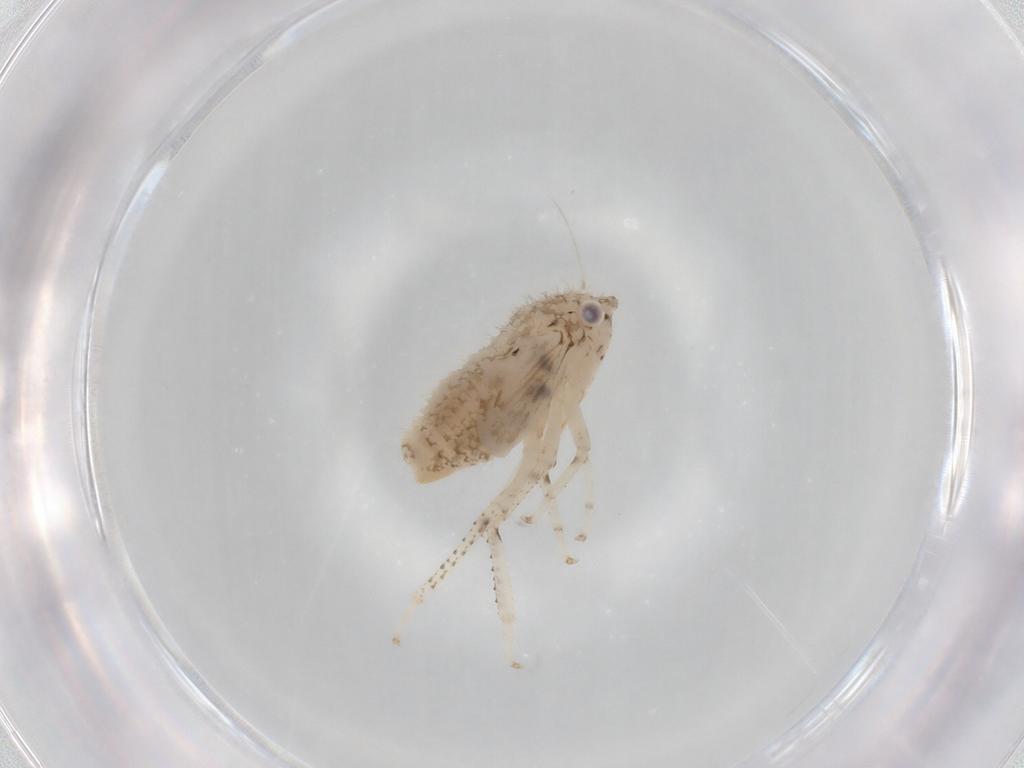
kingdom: Animalia
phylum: Arthropoda
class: Insecta
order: Hemiptera
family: Cicadellidae
